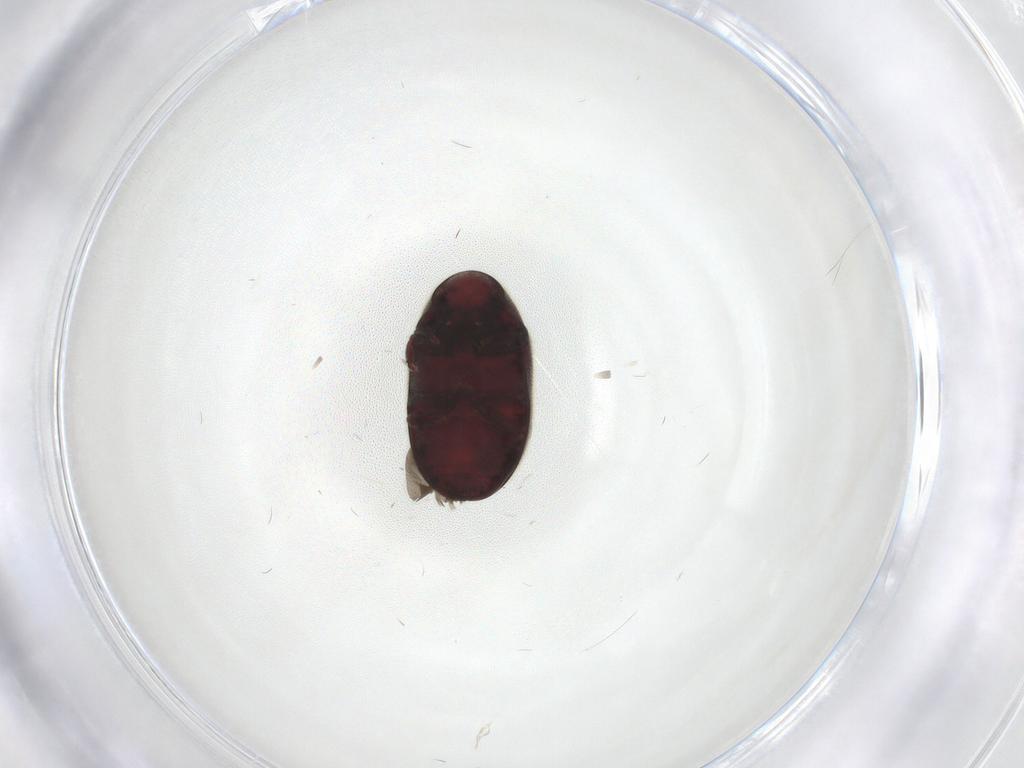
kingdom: Animalia
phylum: Arthropoda
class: Insecta
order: Coleoptera
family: Ptinidae
